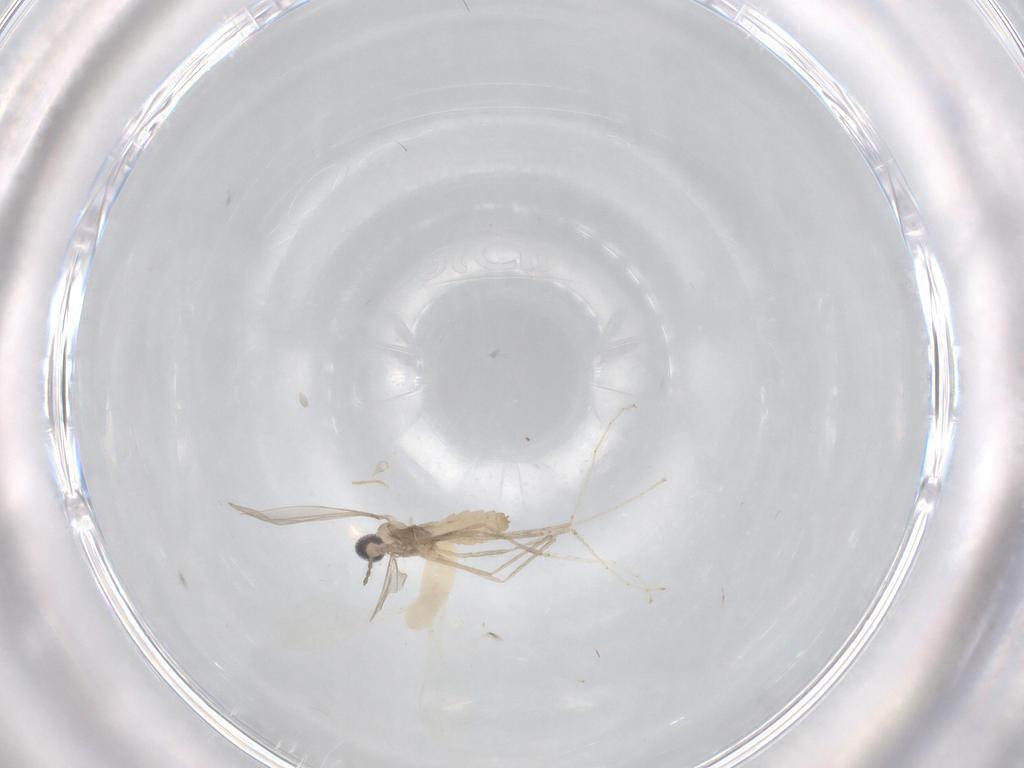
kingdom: Animalia
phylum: Arthropoda
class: Insecta
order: Diptera
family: Cecidomyiidae
